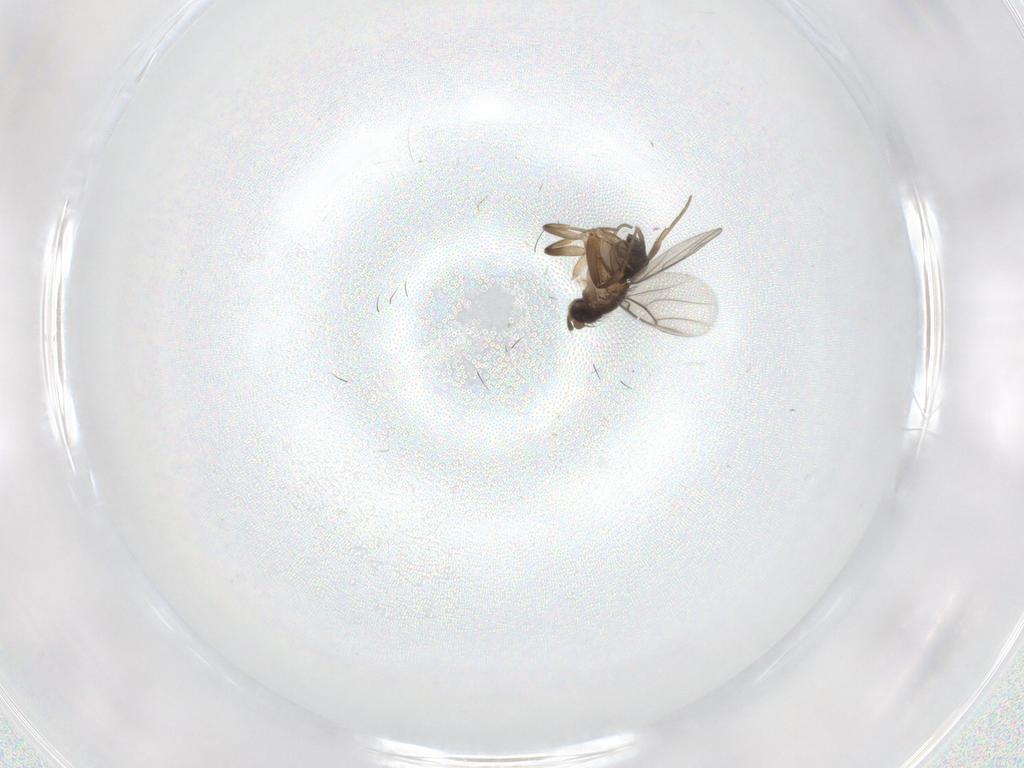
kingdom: Animalia
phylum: Arthropoda
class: Insecta
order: Diptera
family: Phoridae
